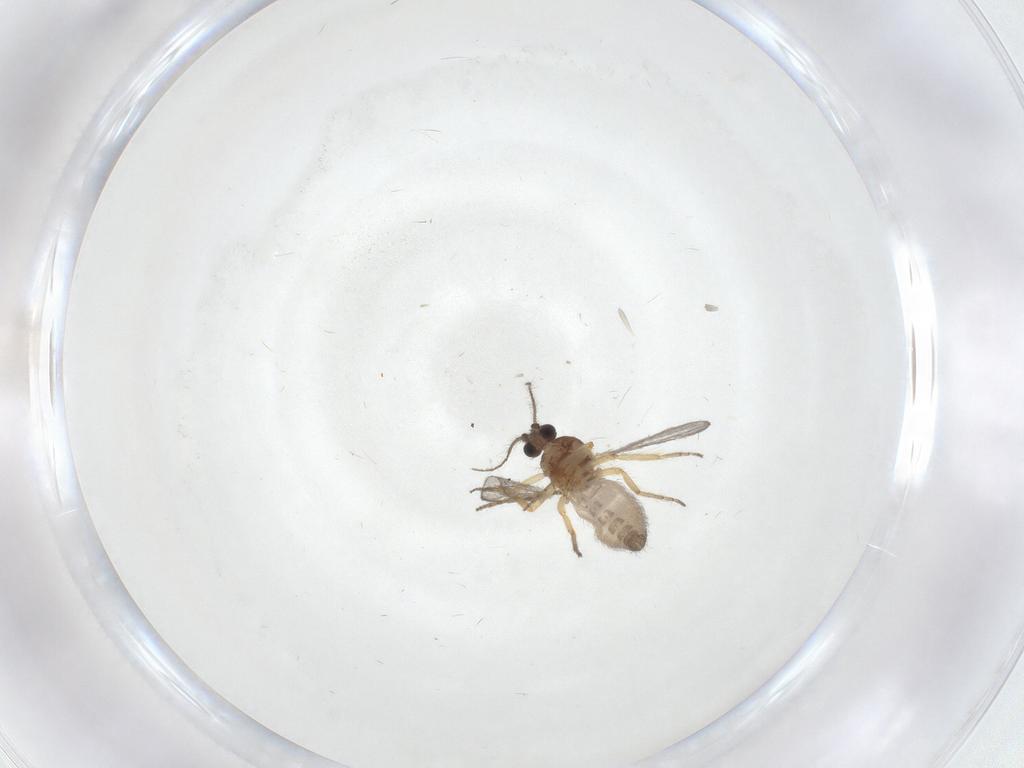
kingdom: Animalia
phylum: Arthropoda
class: Insecta
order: Diptera
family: Ceratopogonidae
